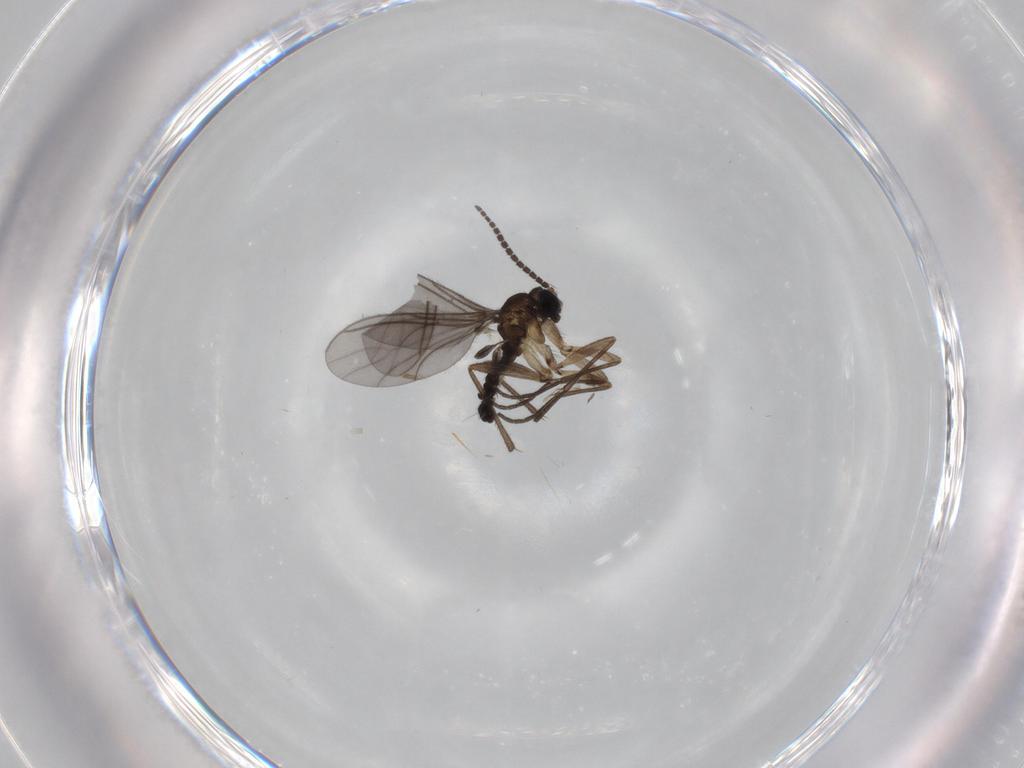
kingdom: Animalia
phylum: Arthropoda
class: Insecta
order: Diptera
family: Sciaridae
